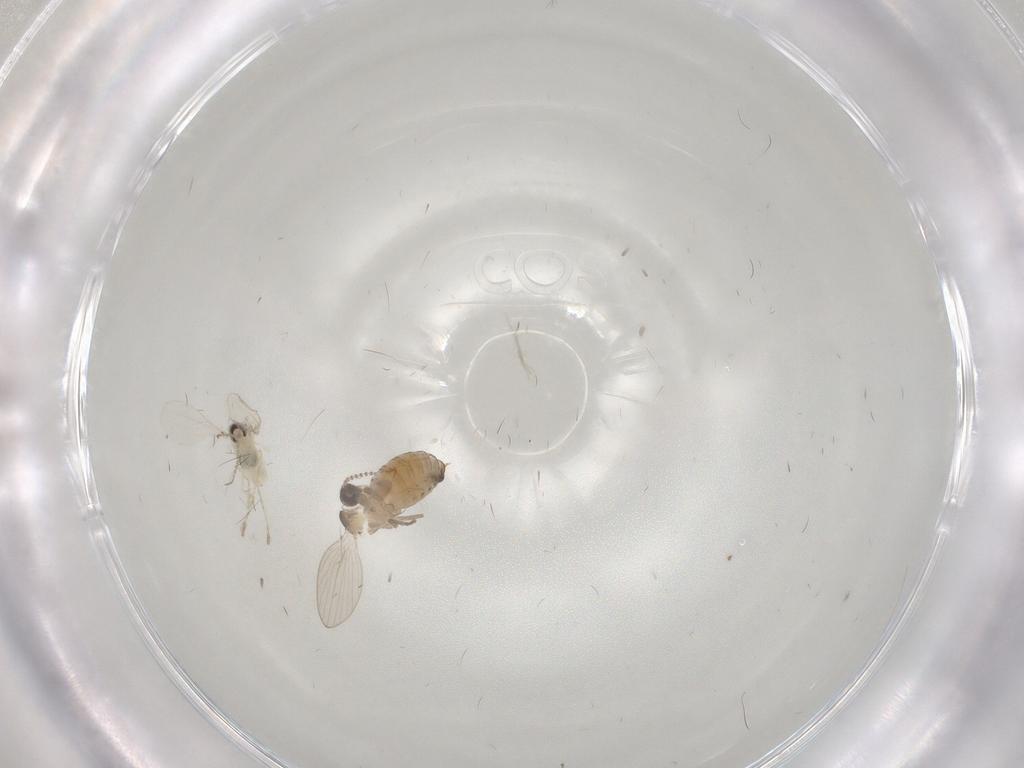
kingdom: Animalia
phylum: Arthropoda
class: Insecta
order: Diptera
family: Psychodidae
